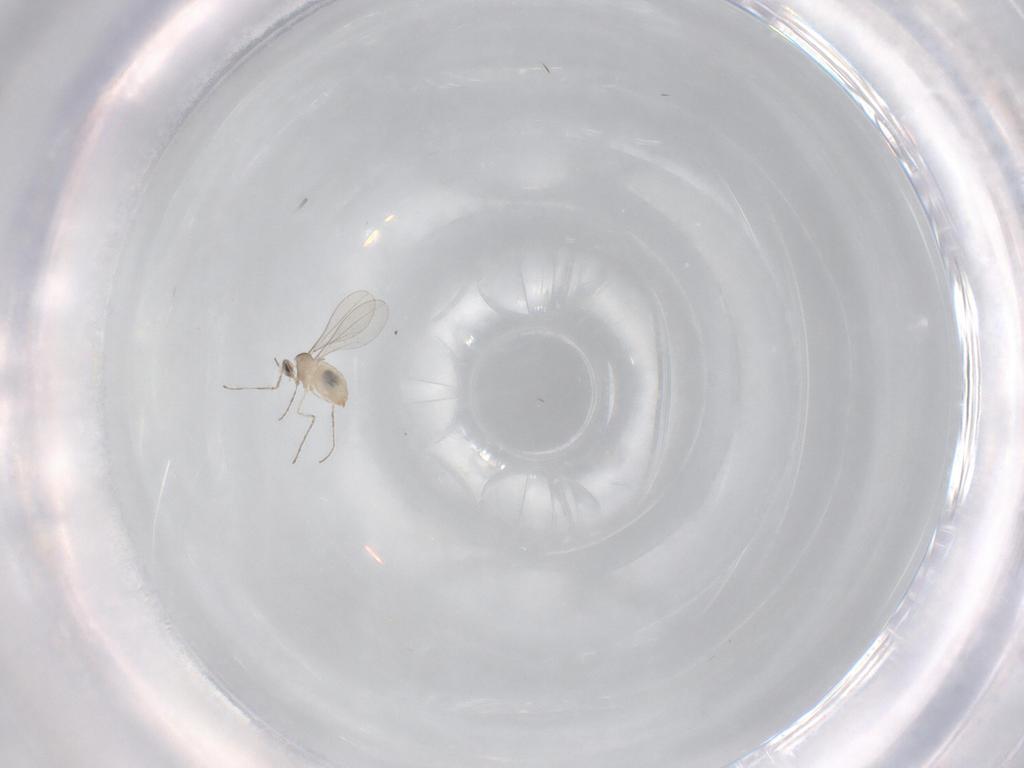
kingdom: Animalia
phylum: Arthropoda
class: Insecta
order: Diptera
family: Cecidomyiidae
